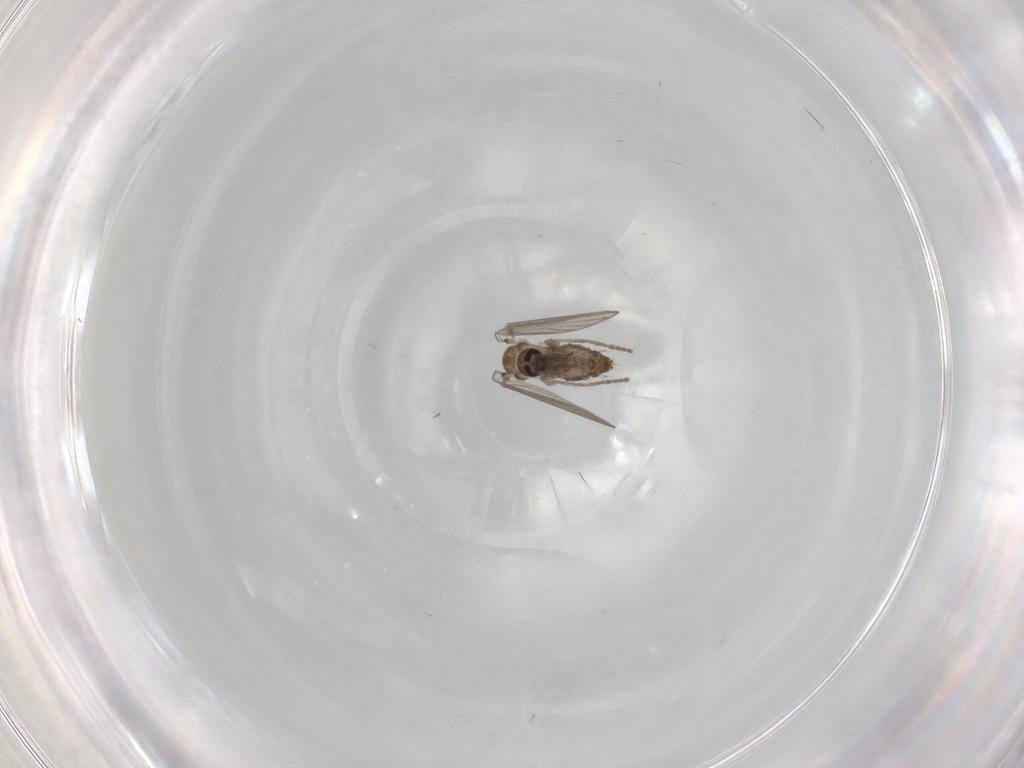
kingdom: Animalia
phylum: Arthropoda
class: Insecta
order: Diptera
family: Psychodidae
